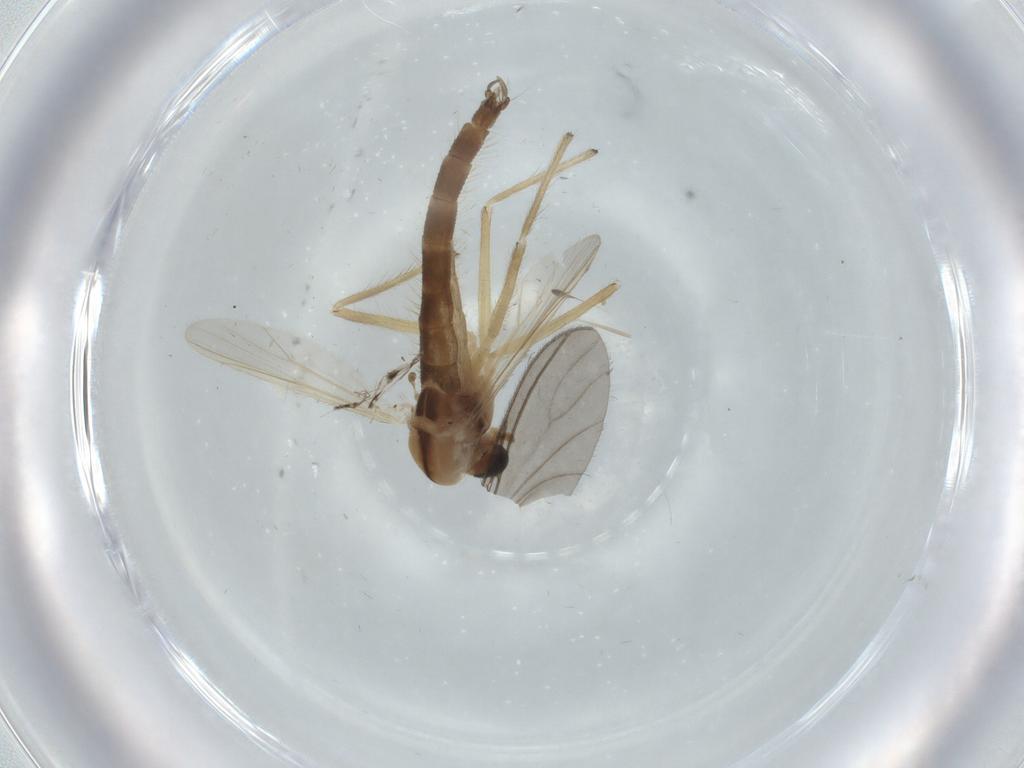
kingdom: Animalia
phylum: Arthropoda
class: Insecta
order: Diptera
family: Chironomidae
